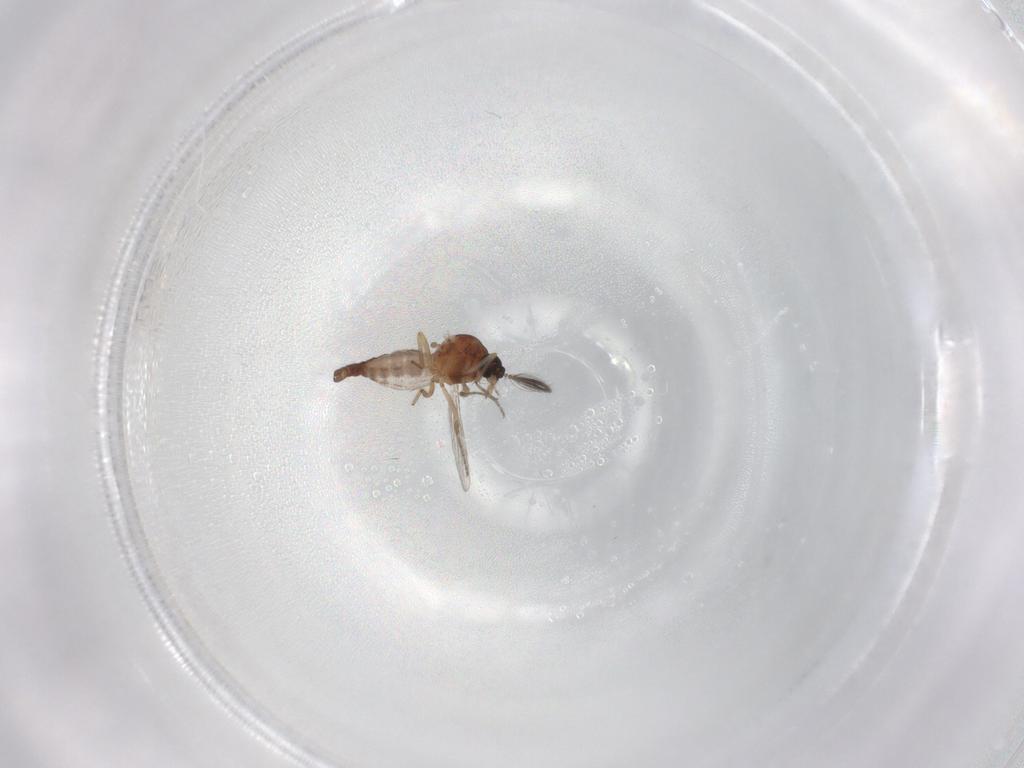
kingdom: Animalia
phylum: Arthropoda
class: Insecta
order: Diptera
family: Ceratopogonidae
